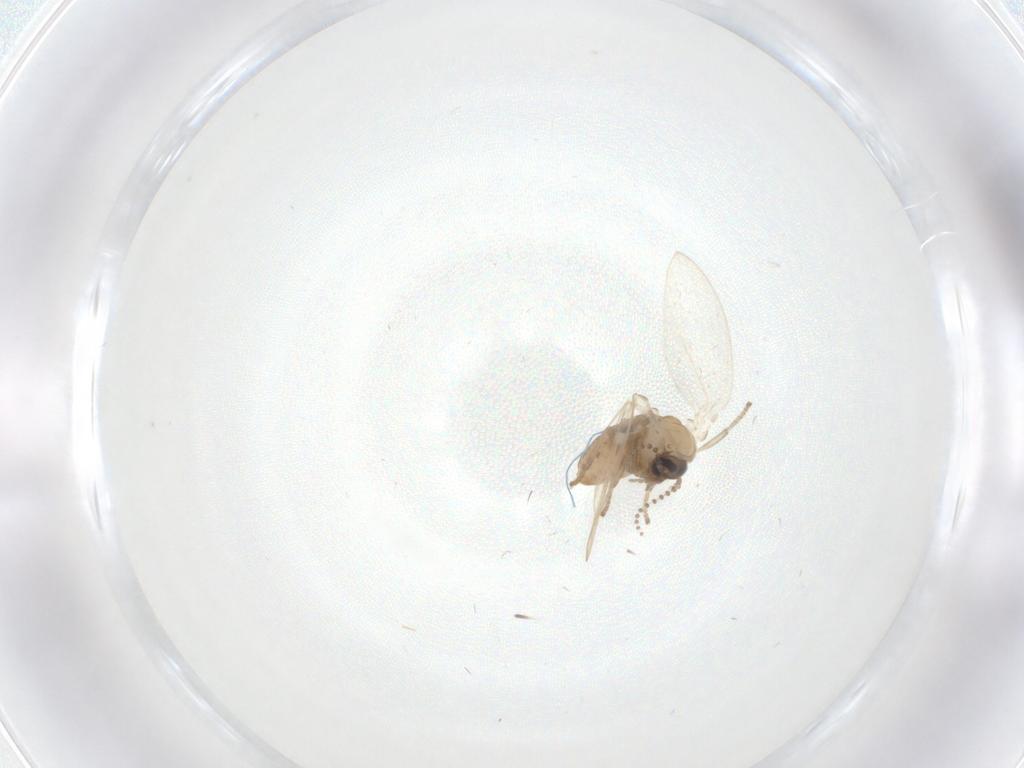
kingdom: Animalia
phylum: Arthropoda
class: Insecta
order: Diptera
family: Psychodidae
